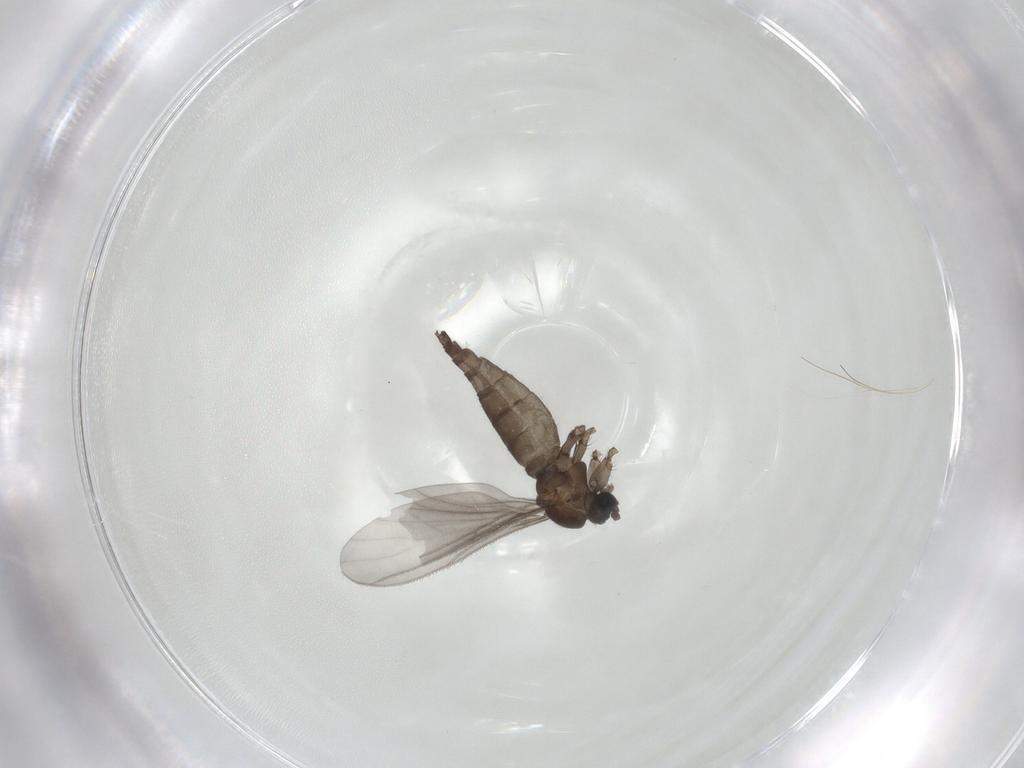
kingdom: Animalia
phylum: Arthropoda
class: Insecta
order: Diptera
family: Sciaridae
